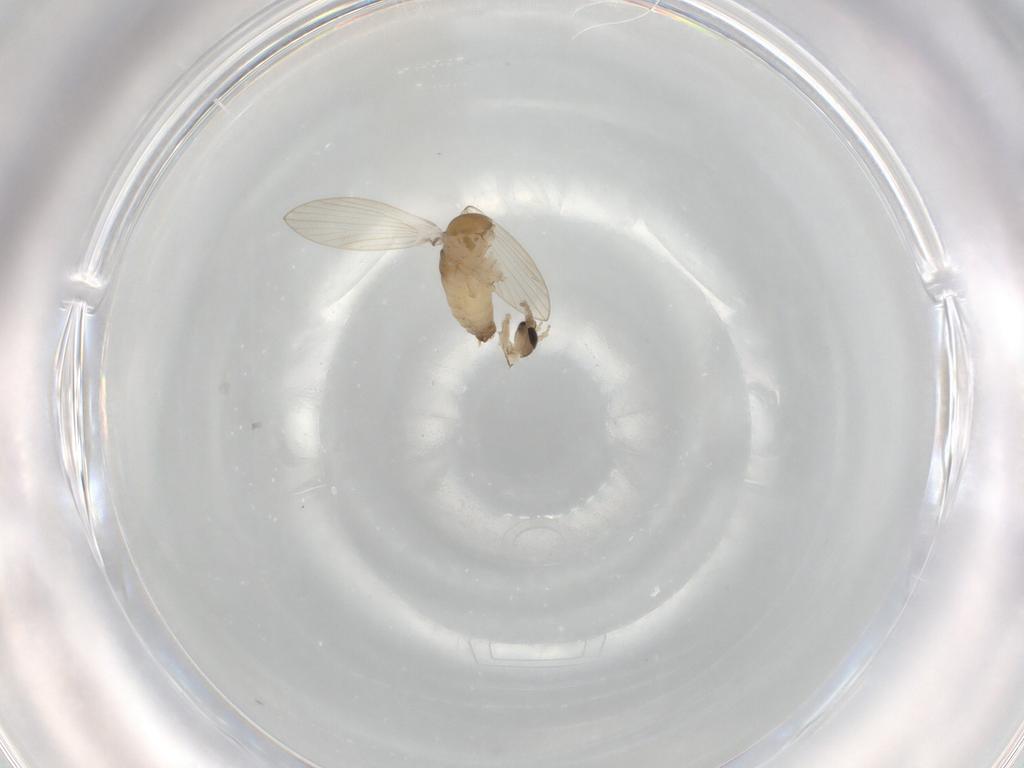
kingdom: Animalia
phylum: Arthropoda
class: Insecta
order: Diptera
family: Psychodidae
